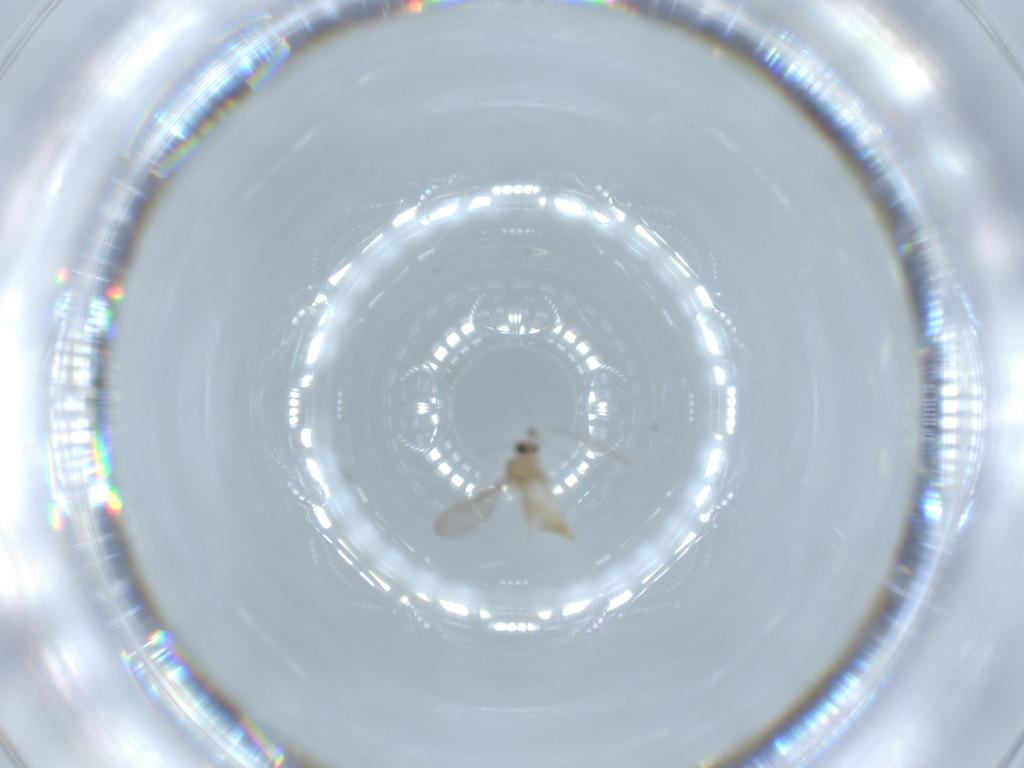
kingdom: Animalia
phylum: Arthropoda
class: Insecta
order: Diptera
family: Cecidomyiidae
